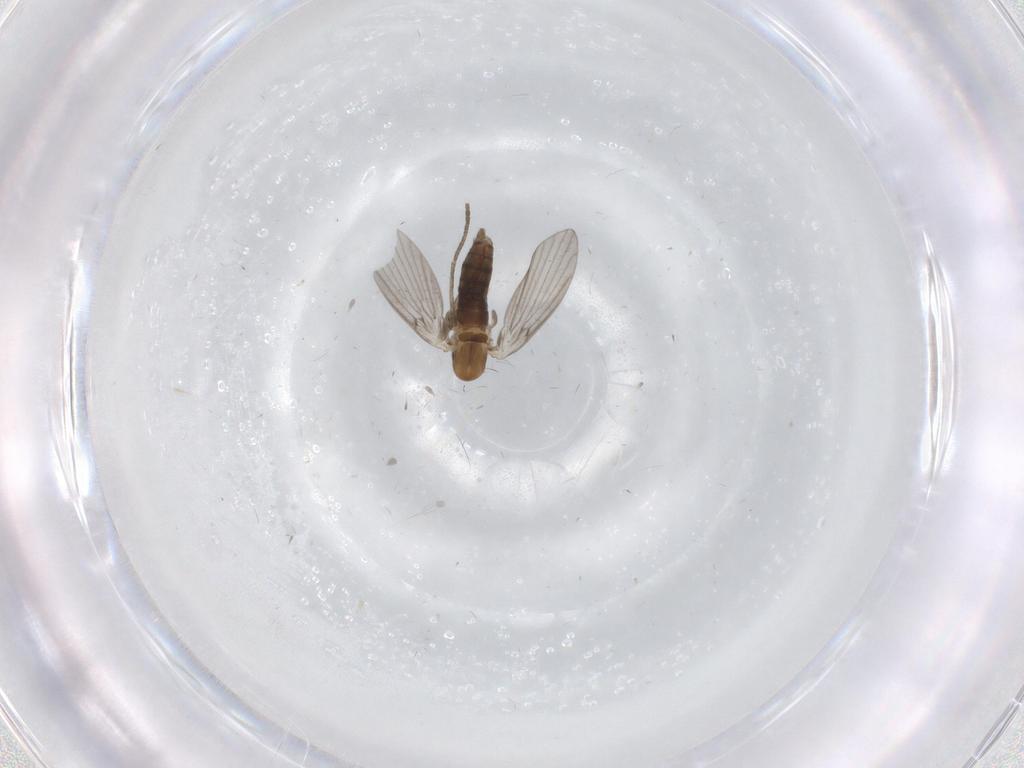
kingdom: Animalia
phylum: Arthropoda
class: Insecta
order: Diptera
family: Psychodidae
